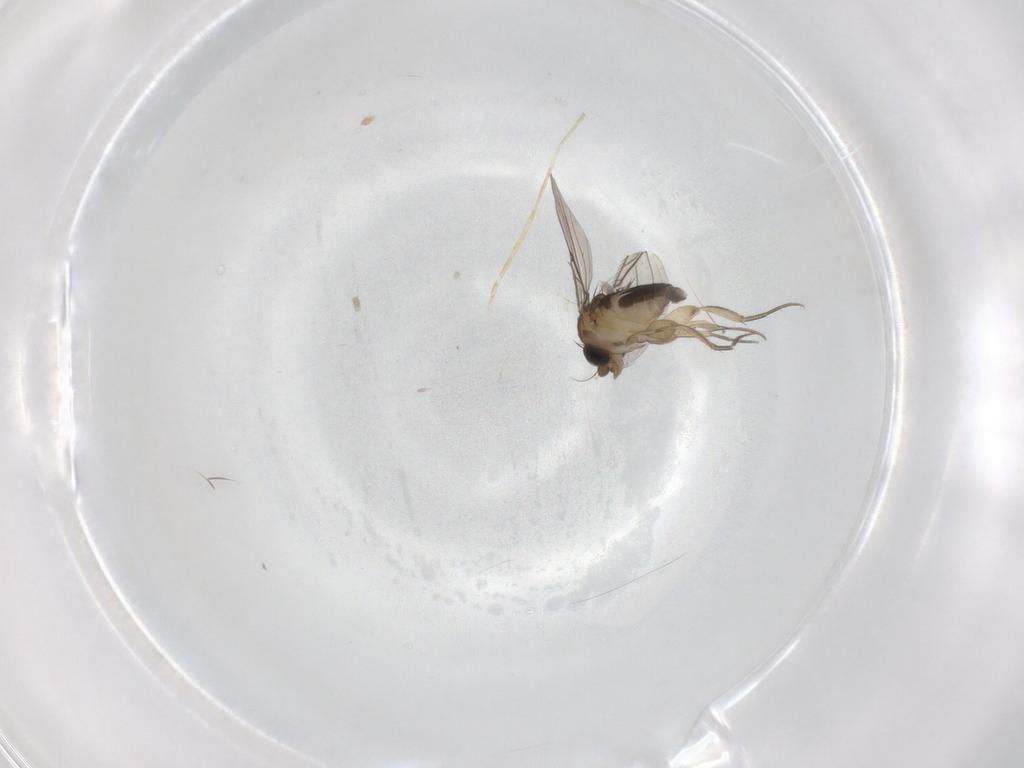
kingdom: Animalia
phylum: Arthropoda
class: Insecta
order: Diptera
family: Phoridae
